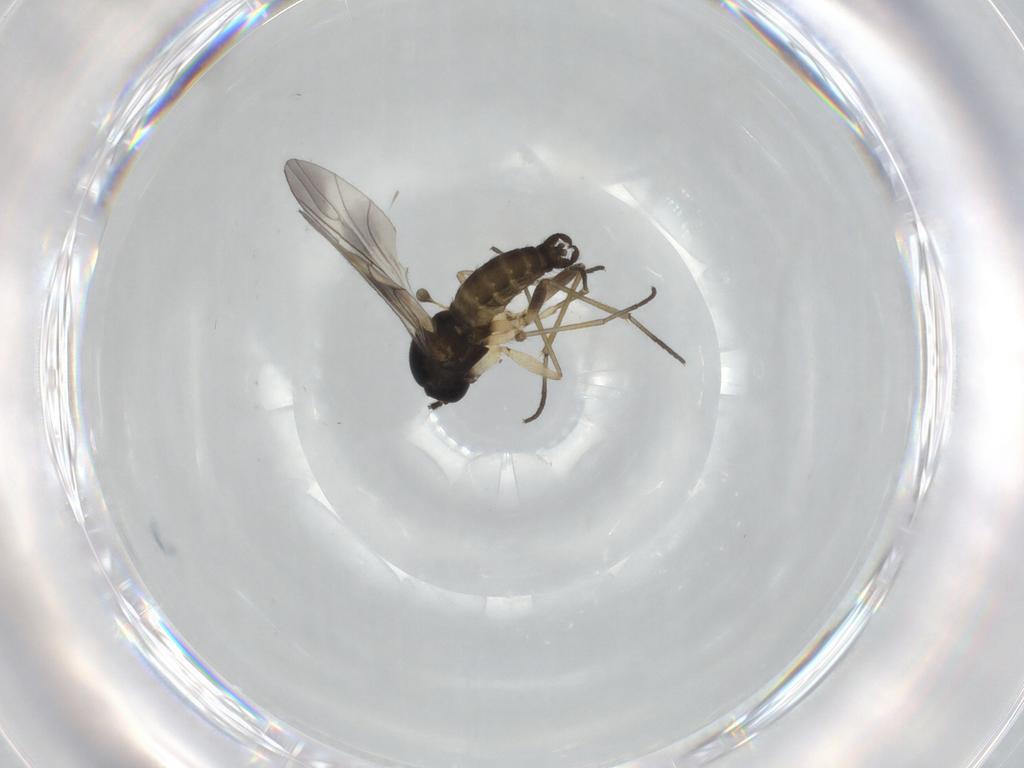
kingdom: Animalia
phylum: Arthropoda
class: Insecta
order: Diptera
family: Sciaridae
